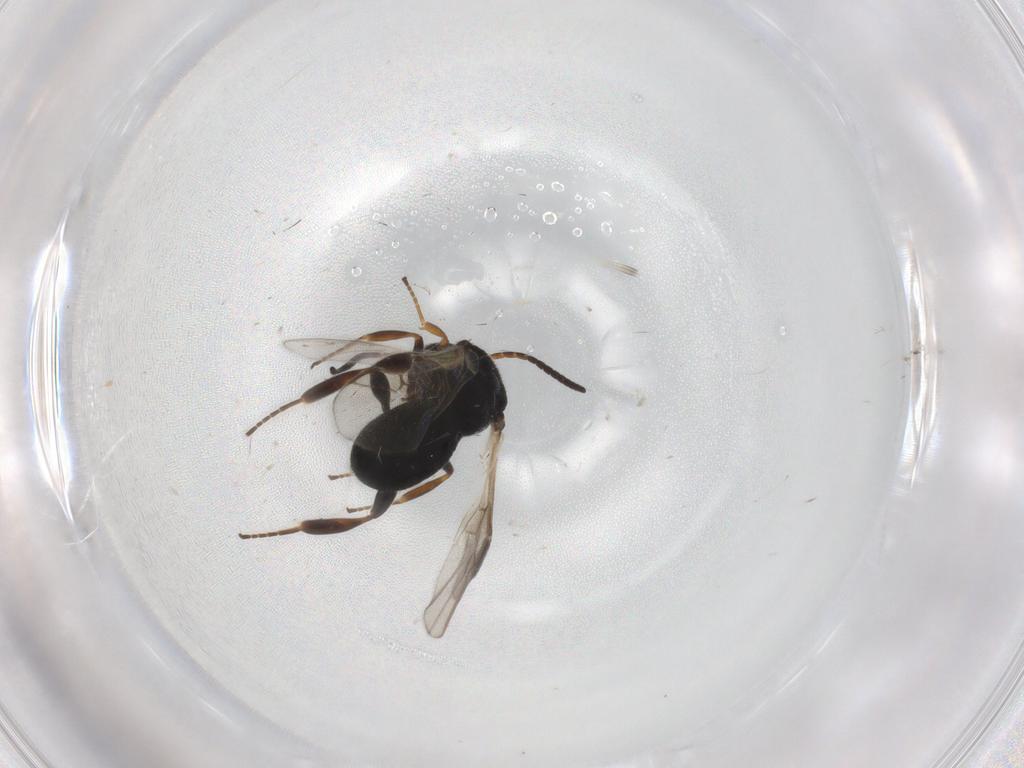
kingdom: Animalia
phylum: Arthropoda
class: Insecta
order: Hymenoptera
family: Braconidae
